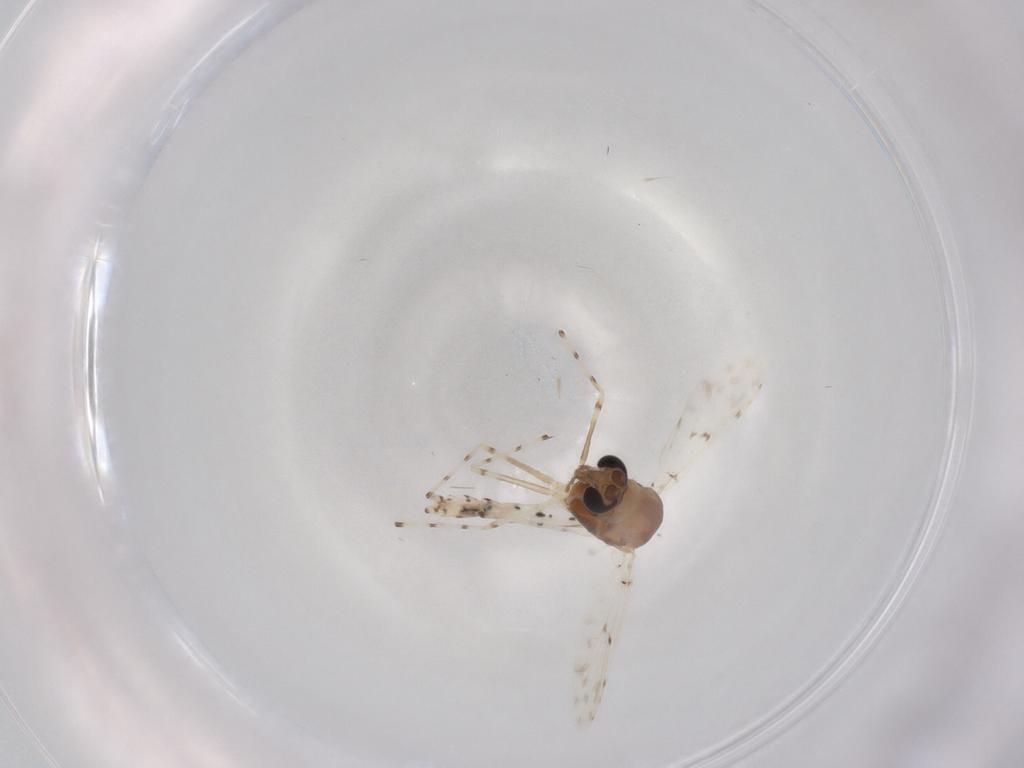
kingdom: Animalia
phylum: Arthropoda
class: Insecta
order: Diptera
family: Chironomidae
